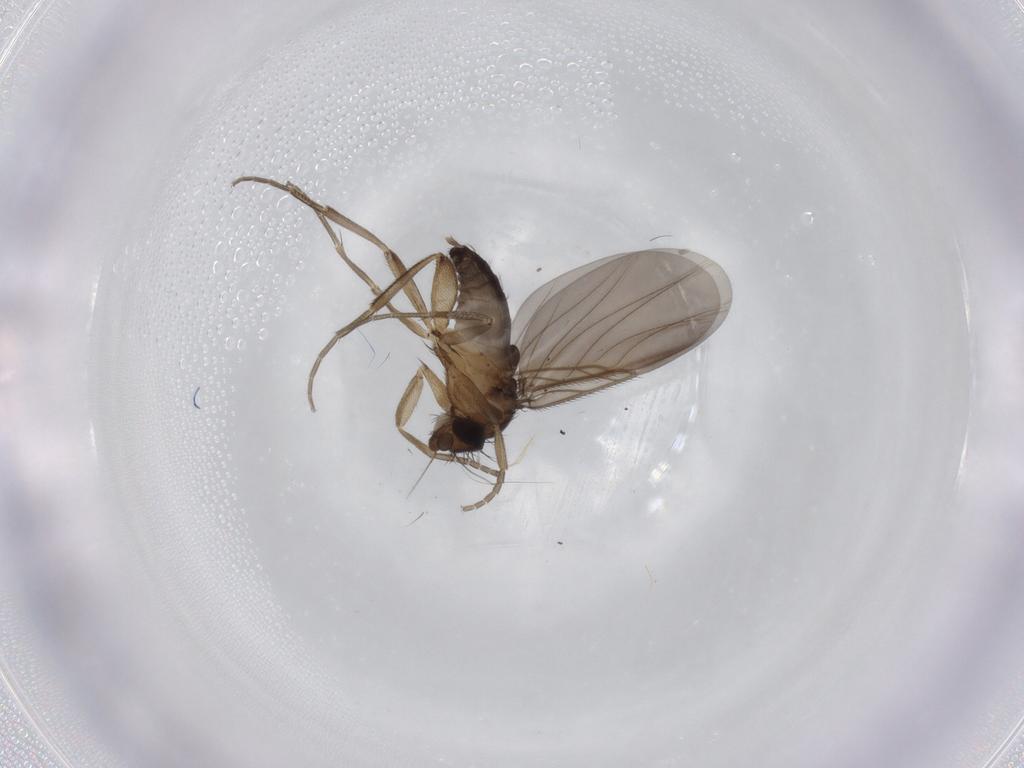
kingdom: Animalia
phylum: Arthropoda
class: Insecta
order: Diptera
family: Phoridae
